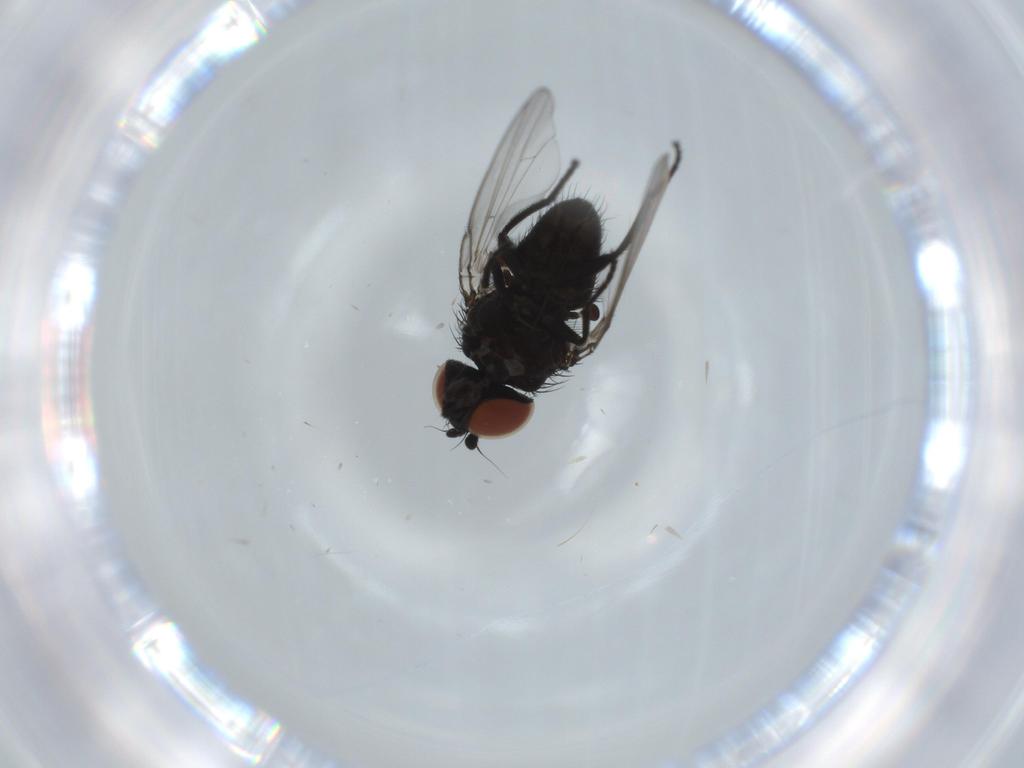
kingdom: Animalia
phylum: Arthropoda
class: Insecta
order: Diptera
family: Milichiidae
